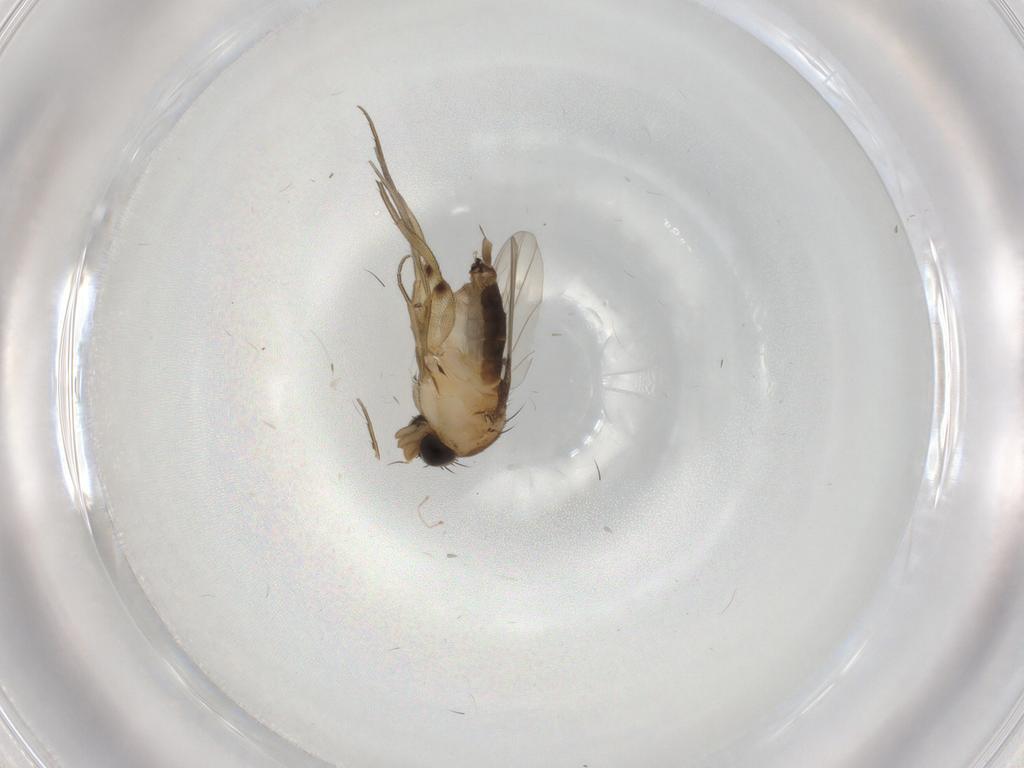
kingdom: Animalia
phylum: Arthropoda
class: Insecta
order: Diptera
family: Phoridae
